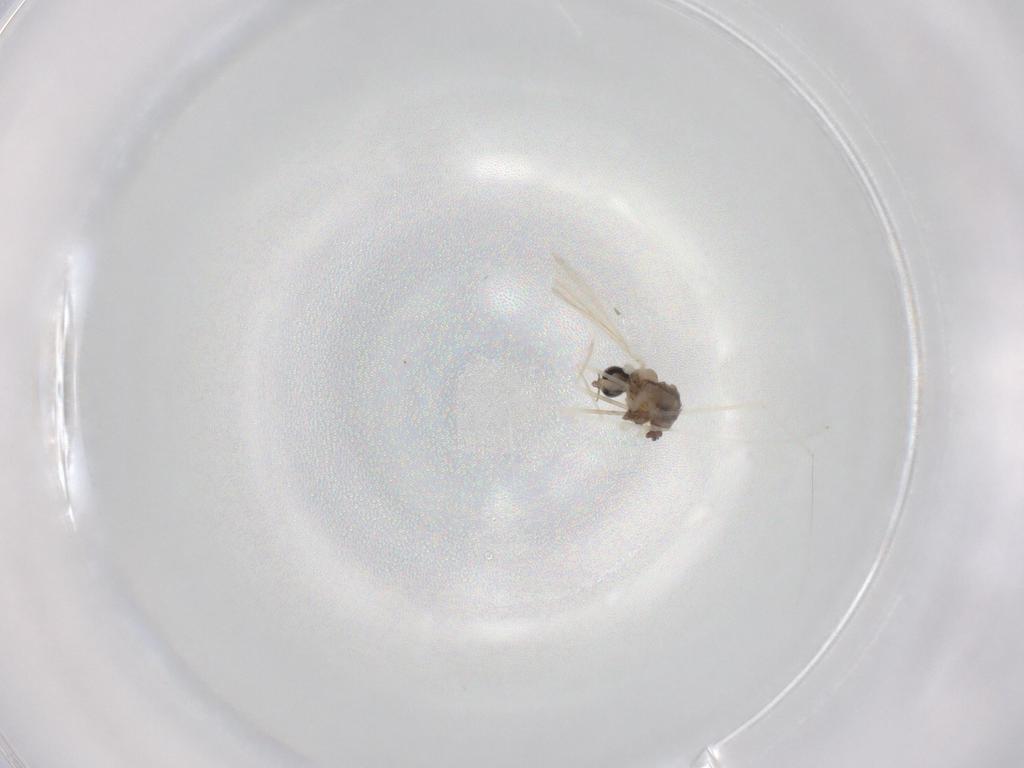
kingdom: Animalia
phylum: Arthropoda
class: Insecta
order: Diptera
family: Cecidomyiidae
